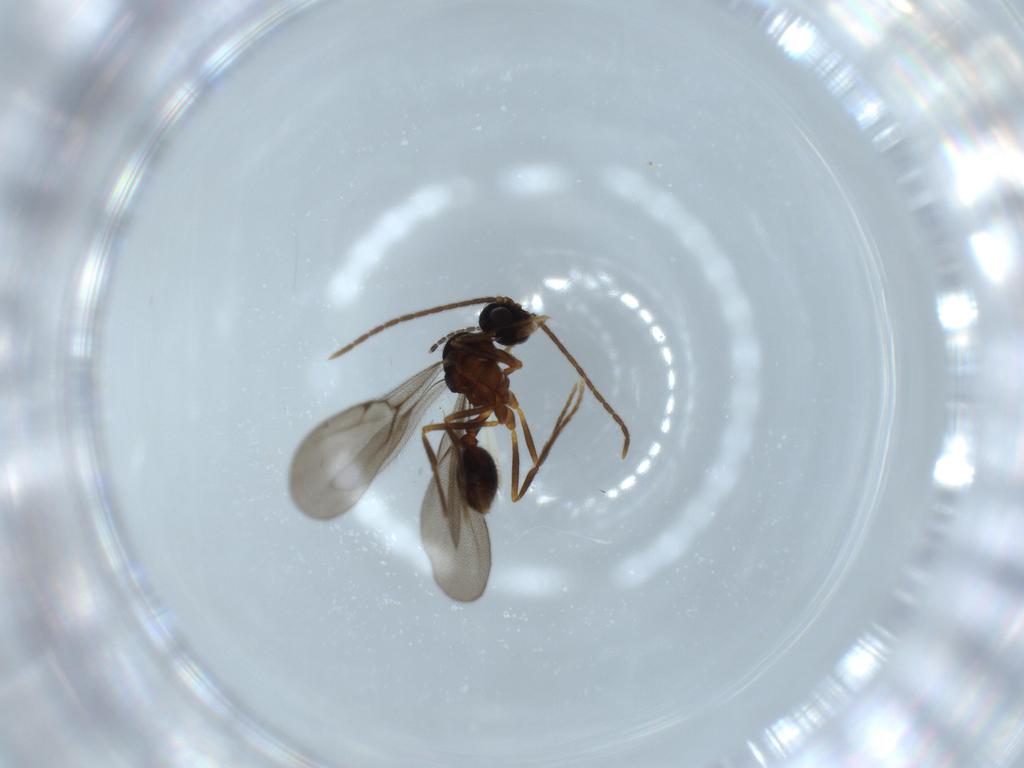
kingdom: Animalia
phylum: Arthropoda
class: Insecta
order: Hymenoptera
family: Formicidae
